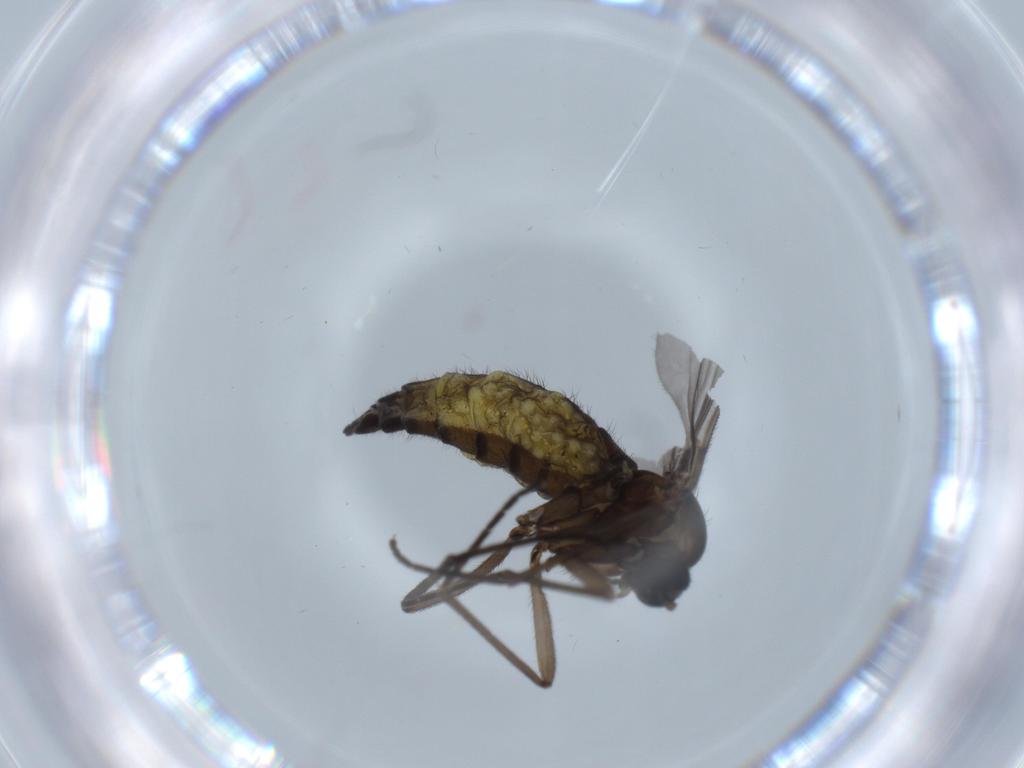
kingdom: Animalia
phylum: Arthropoda
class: Insecta
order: Diptera
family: Sciaridae
